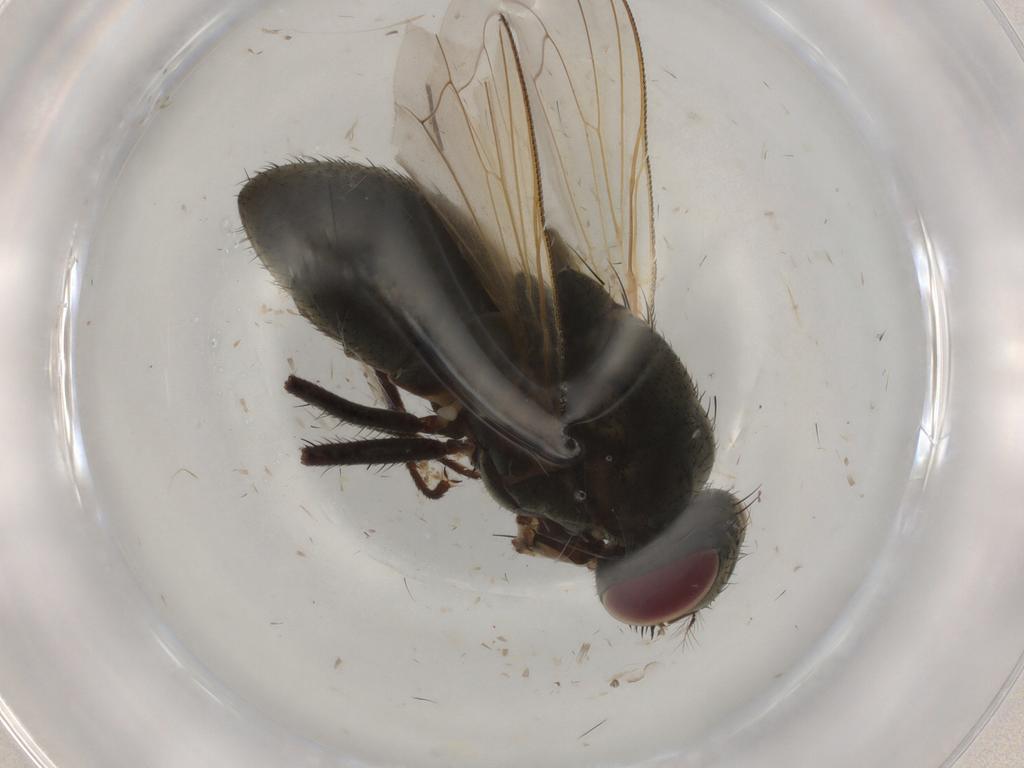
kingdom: Animalia
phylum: Arthropoda
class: Insecta
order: Diptera
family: Muscidae
